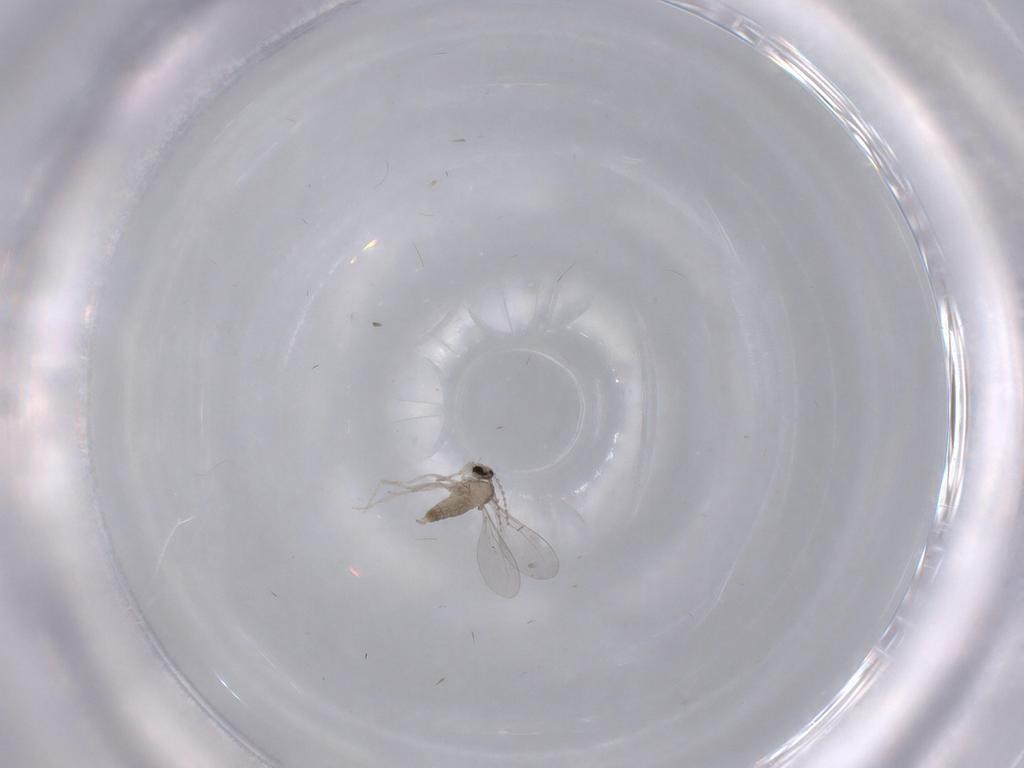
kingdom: Animalia
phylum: Arthropoda
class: Insecta
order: Diptera
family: Cecidomyiidae
